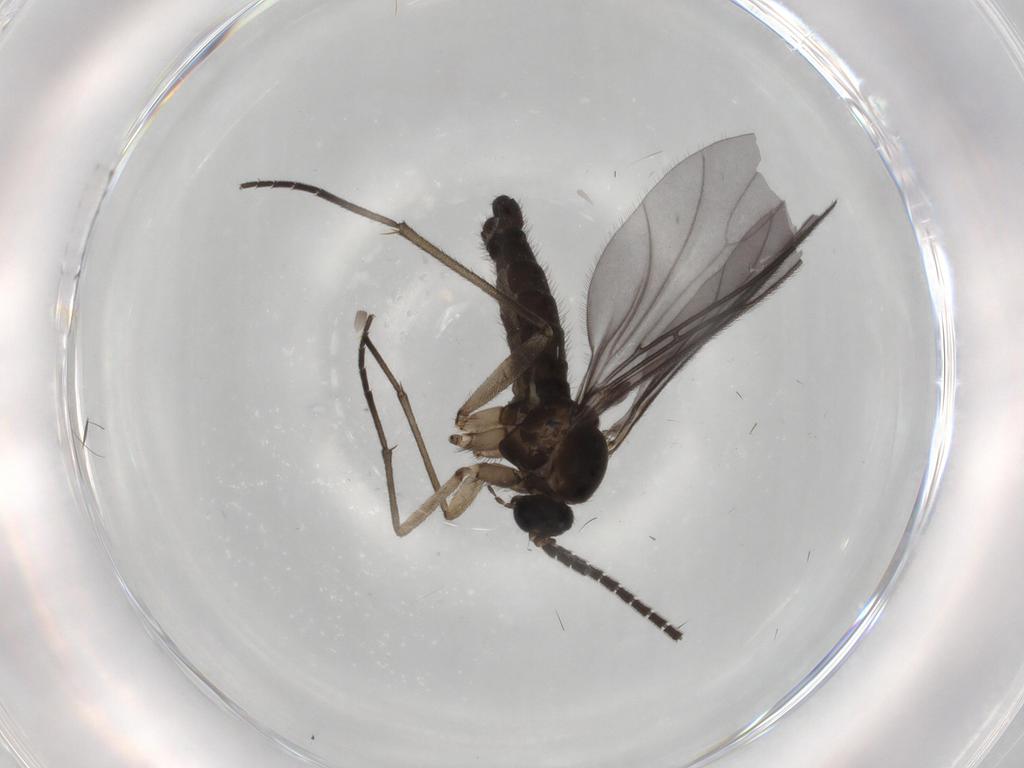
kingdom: Animalia
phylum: Arthropoda
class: Insecta
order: Diptera
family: Sciaridae
